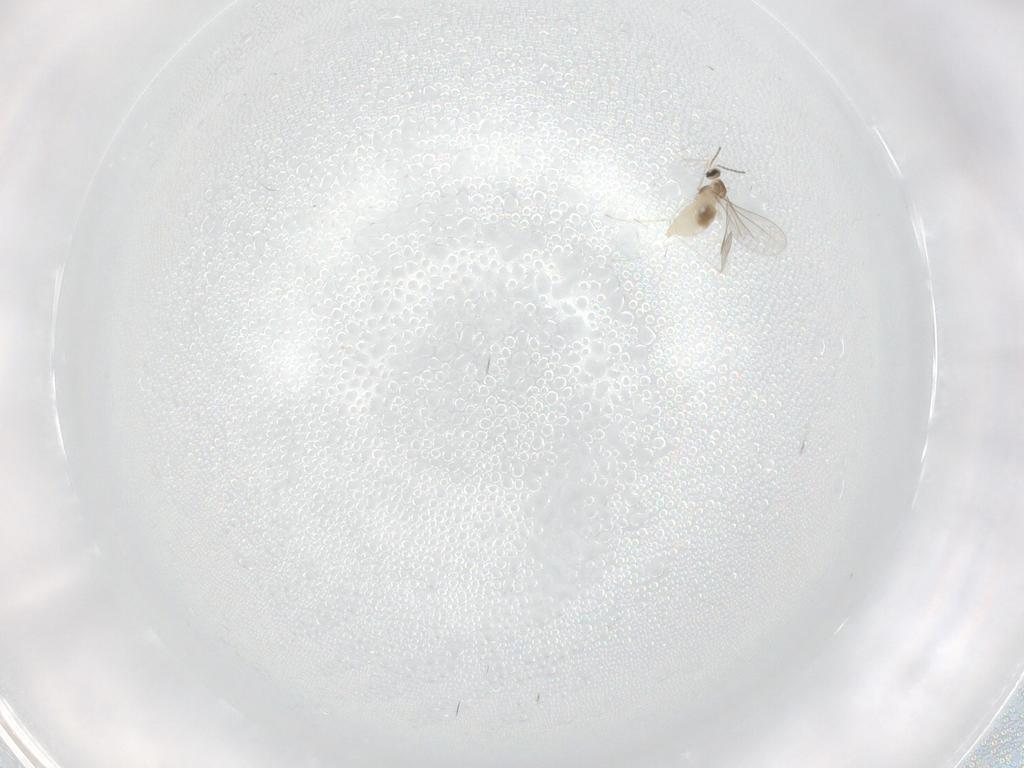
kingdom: Animalia
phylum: Arthropoda
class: Insecta
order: Diptera
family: Cecidomyiidae
